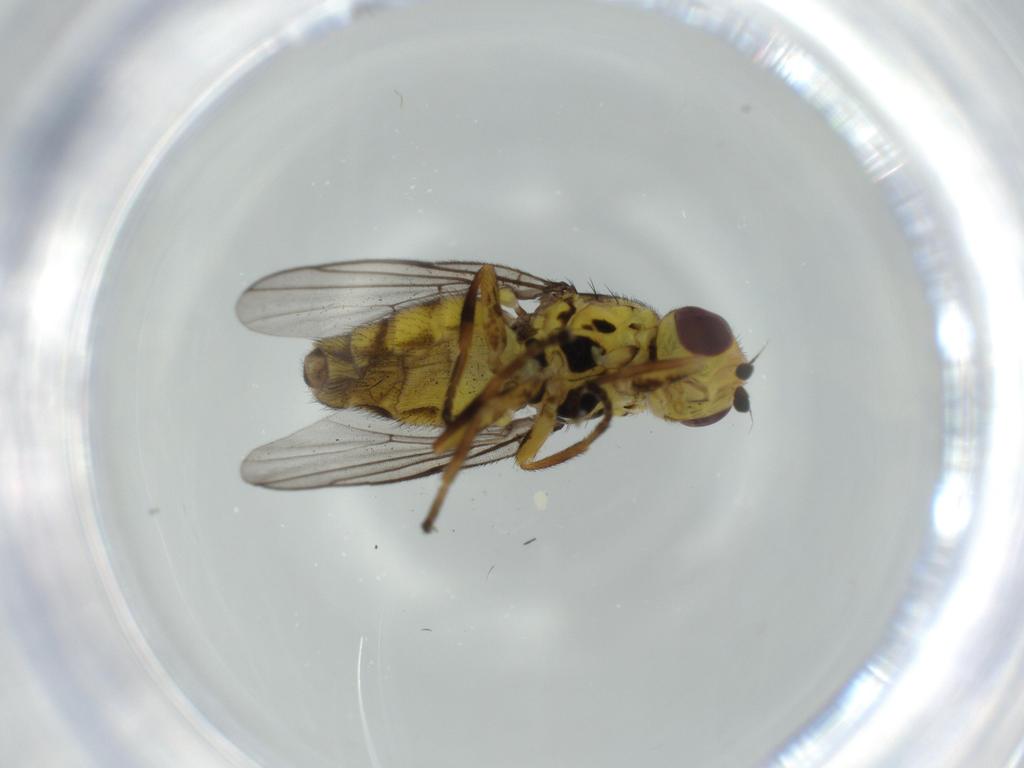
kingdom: Animalia
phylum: Arthropoda
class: Insecta
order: Diptera
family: Chironomidae
